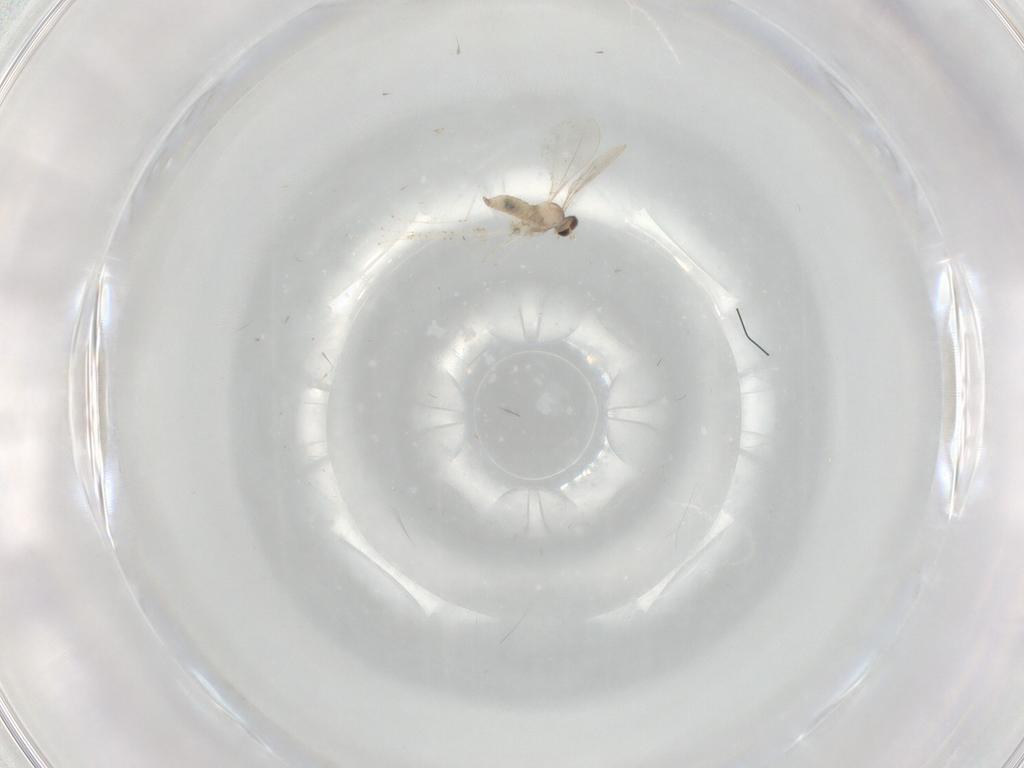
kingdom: Animalia
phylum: Arthropoda
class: Insecta
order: Diptera
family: Cecidomyiidae
